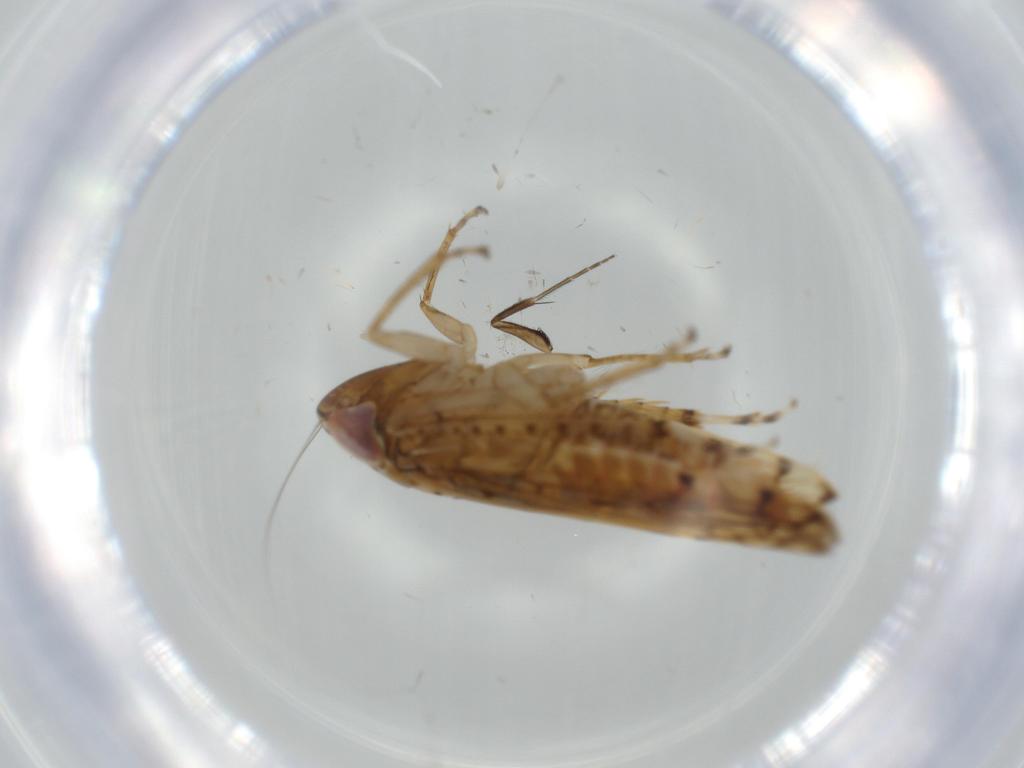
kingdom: Animalia
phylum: Arthropoda
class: Insecta
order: Hemiptera
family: Cicadellidae
